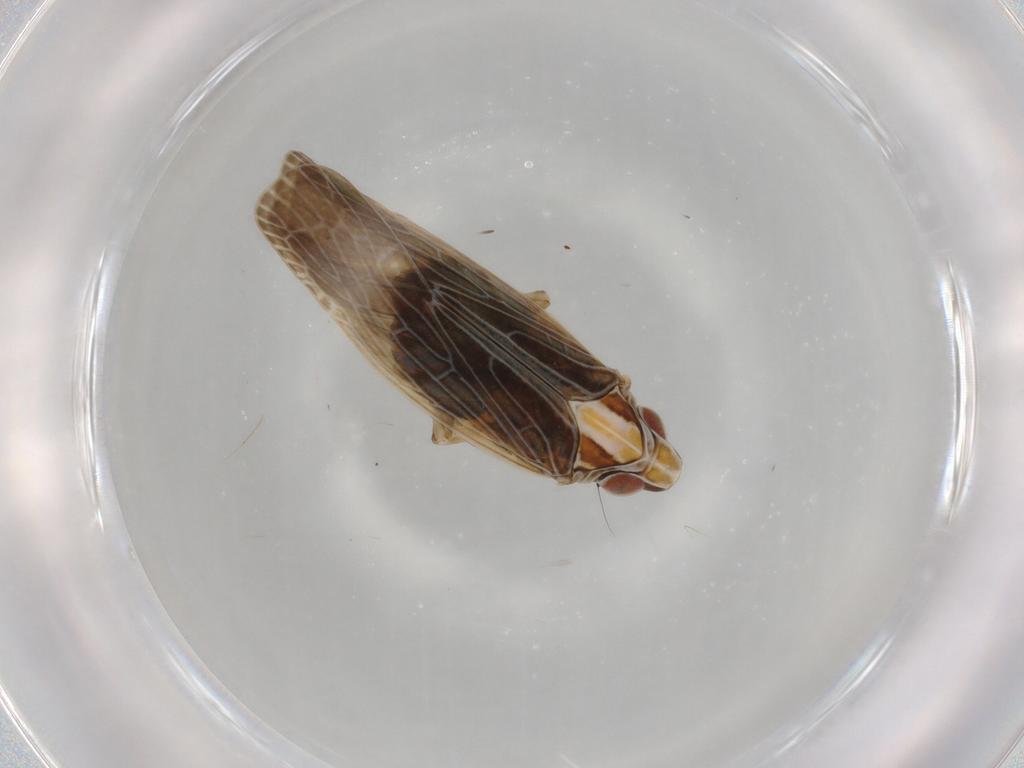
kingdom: Animalia
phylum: Arthropoda
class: Insecta
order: Hemiptera
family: Achilidae
